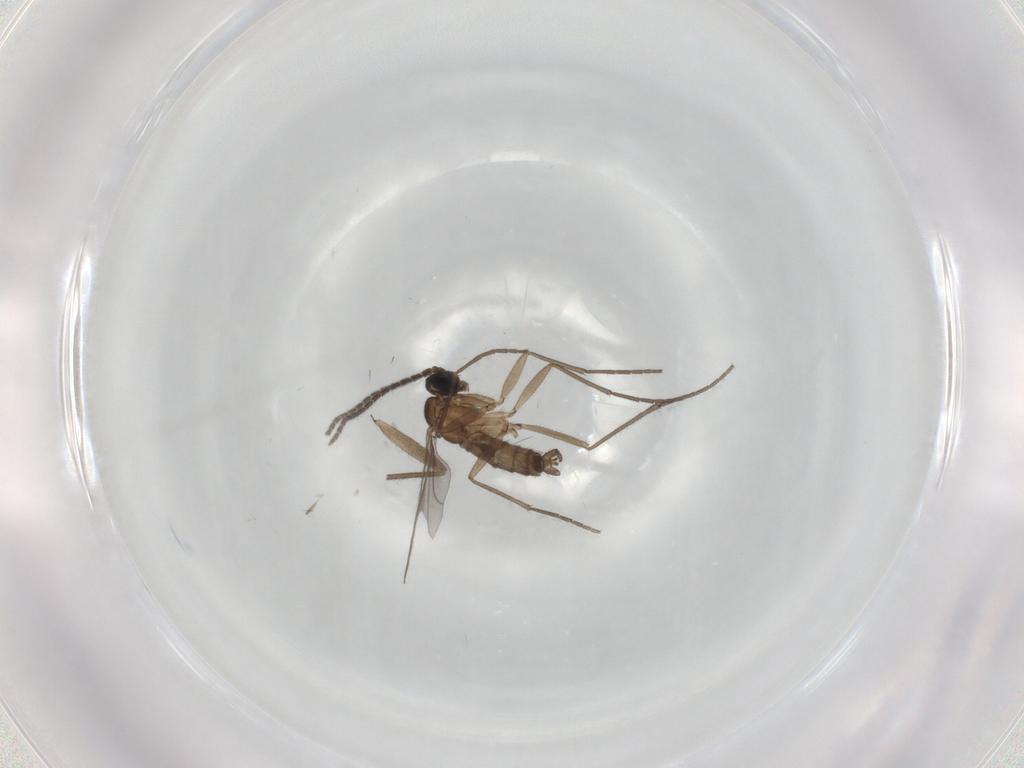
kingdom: Animalia
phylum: Arthropoda
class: Insecta
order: Diptera
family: Sciaridae
